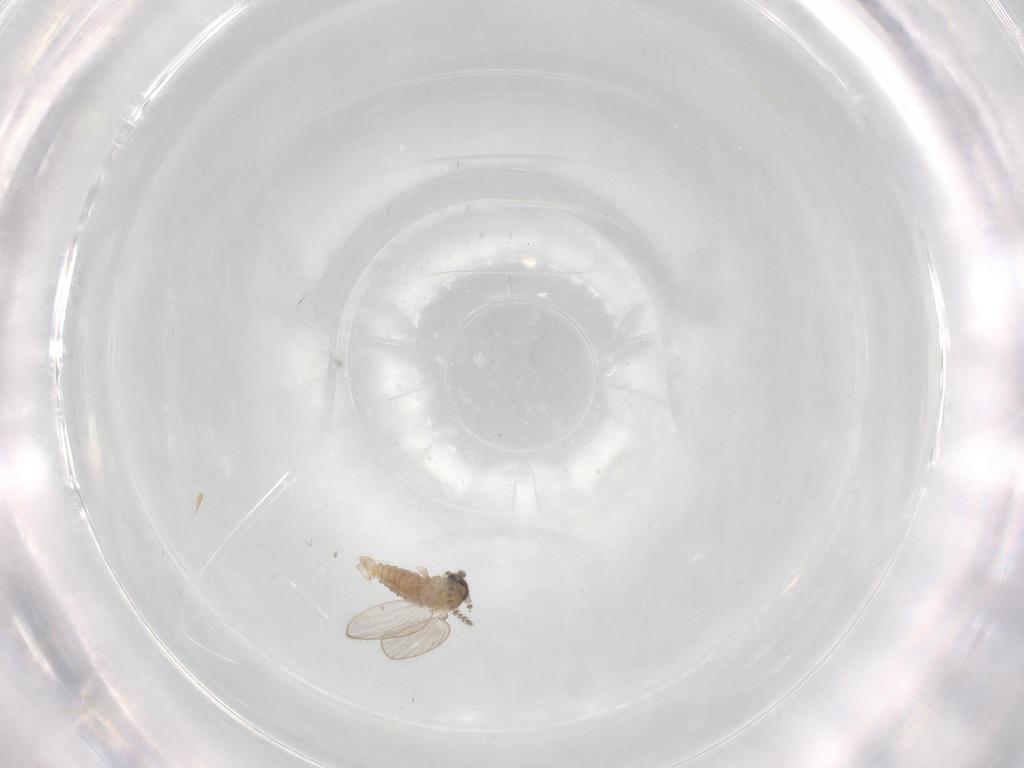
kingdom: Animalia
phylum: Arthropoda
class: Insecta
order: Diptera
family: Psychodidae
